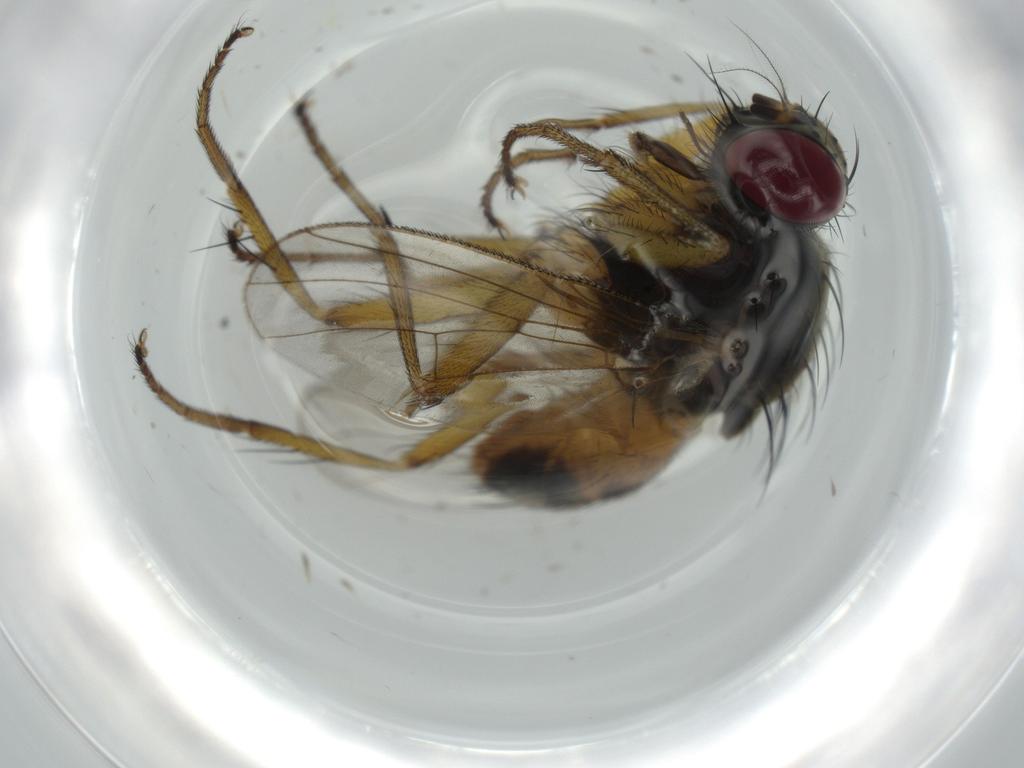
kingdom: Animalia
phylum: Arthropoda
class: Insecta
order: Diptera
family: Muscidae
